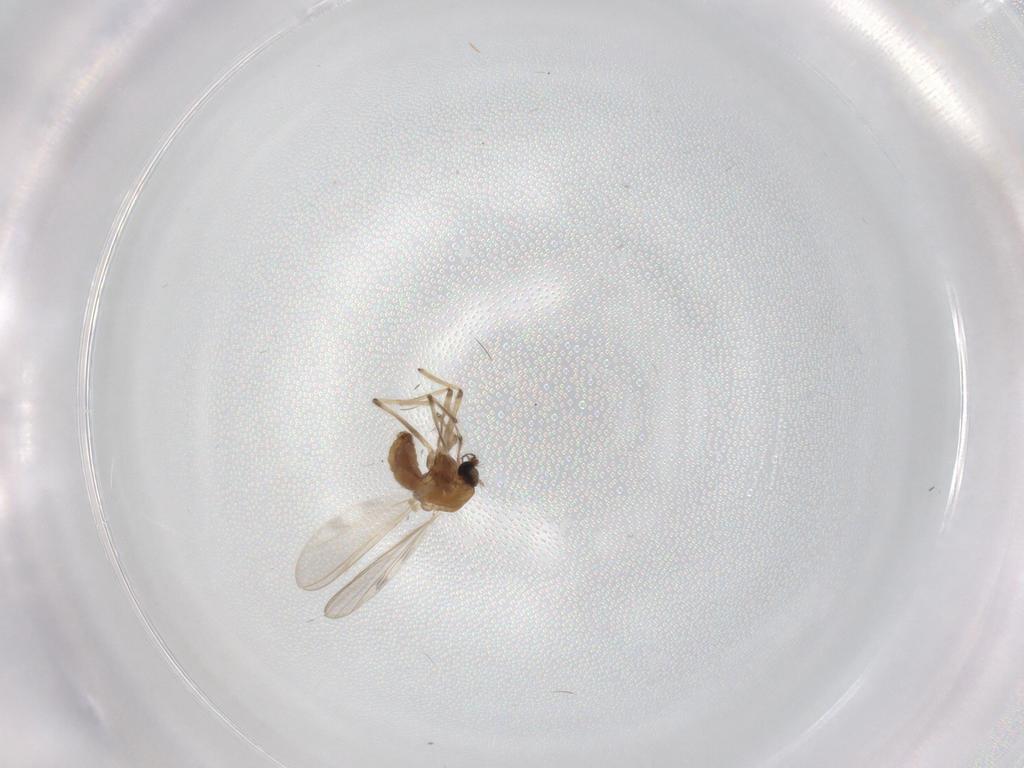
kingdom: Animalia
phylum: Arthropoda
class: Insecta
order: Diptera
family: Chironomidae
